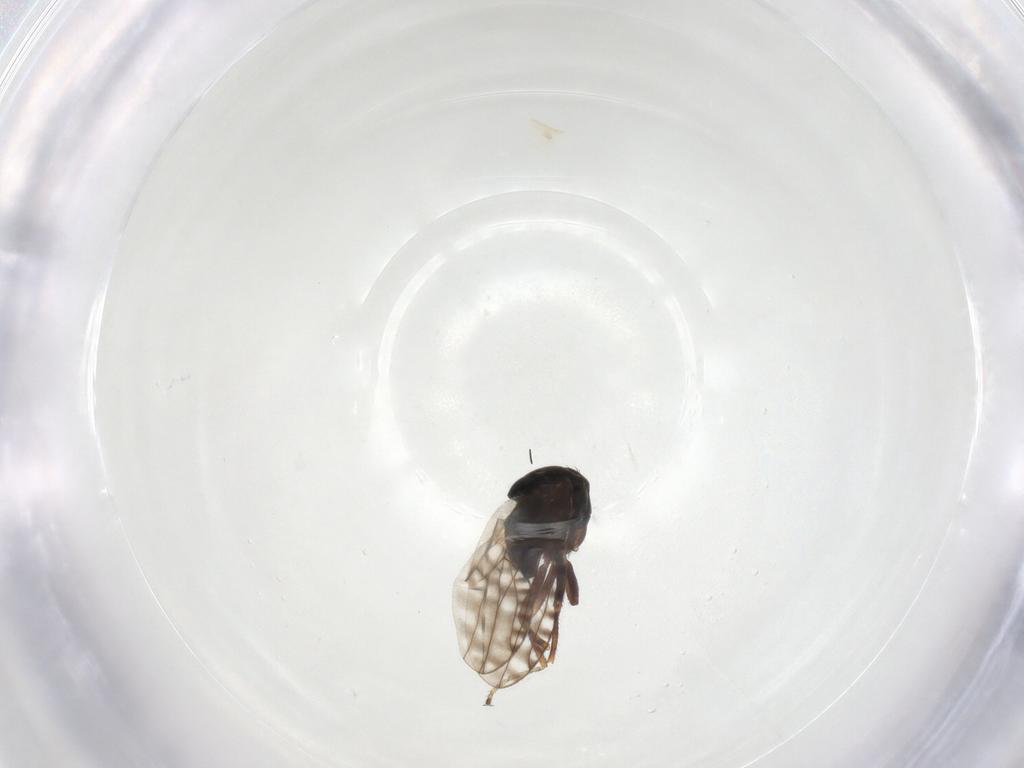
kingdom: Animalia
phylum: Arthropoda
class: Insecta
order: Diptera
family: Ephydridae
